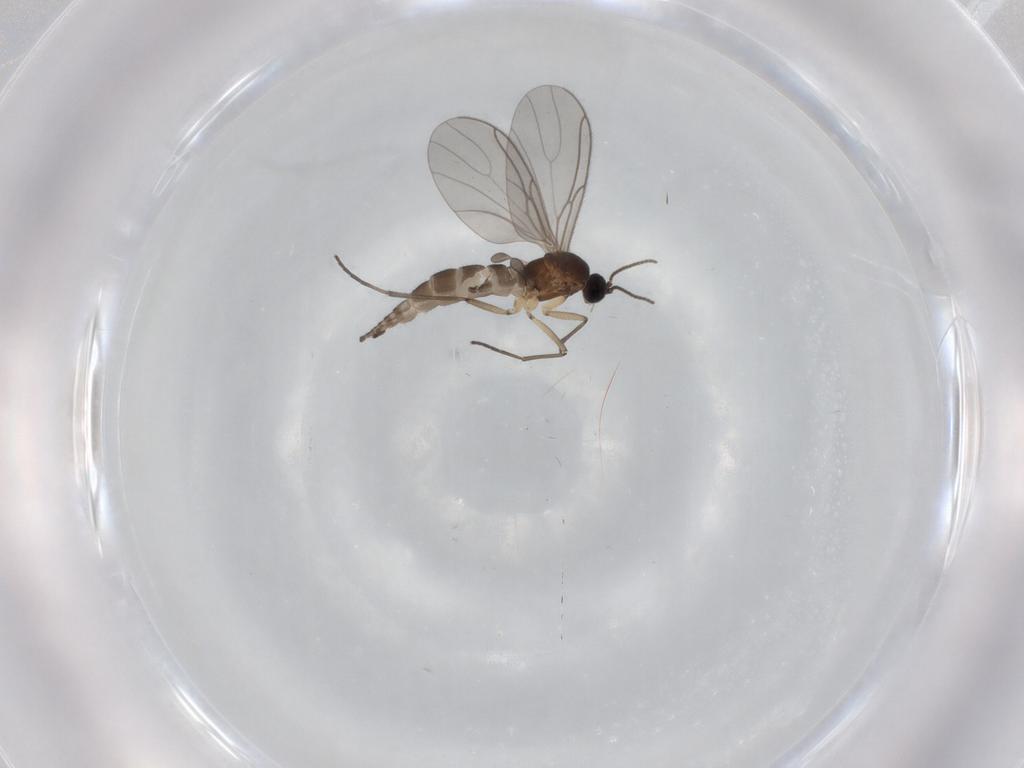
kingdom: Animalia
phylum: Arthropoda
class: Insecta
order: Diptera
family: Sciaridae
